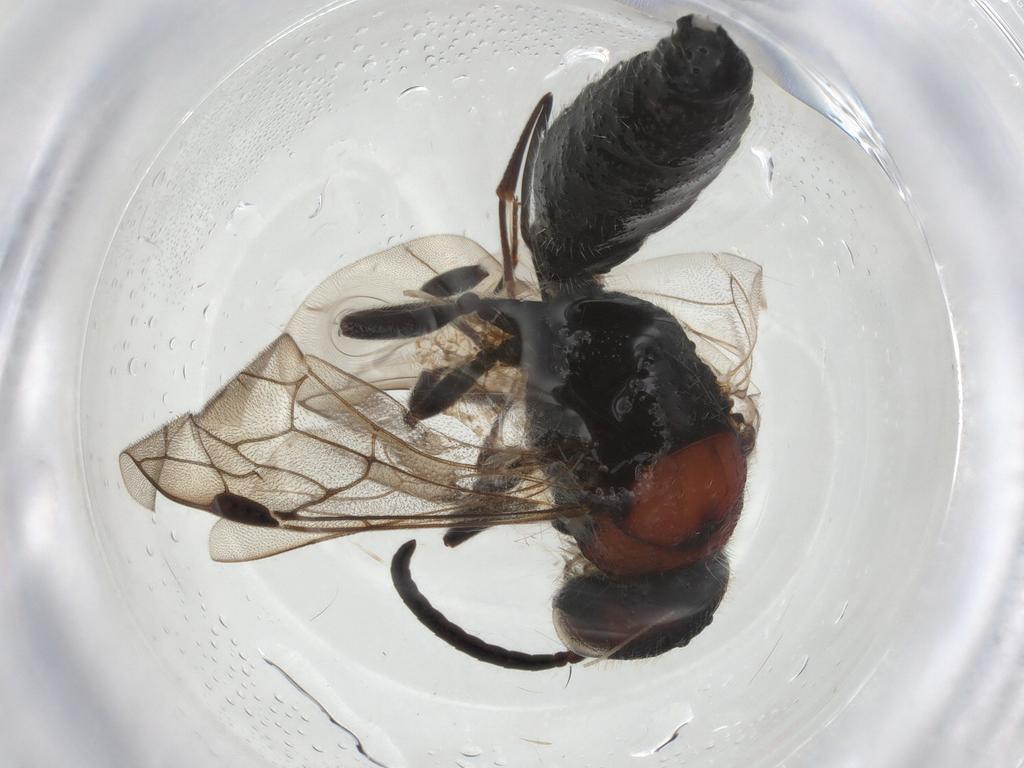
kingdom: Animalia
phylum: Arthropoda
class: Insecta
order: Hymenoptera
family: Myrmosidae
